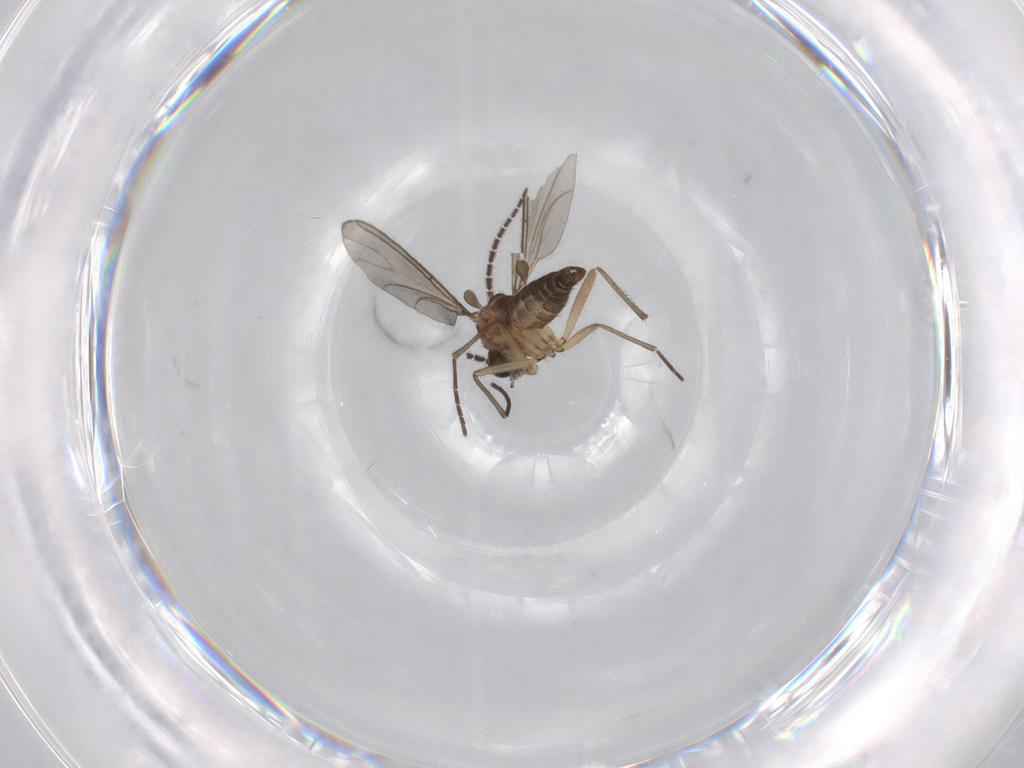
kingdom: Animalia
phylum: Arthropoda
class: Insecta
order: Diptera
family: Sciaridae
